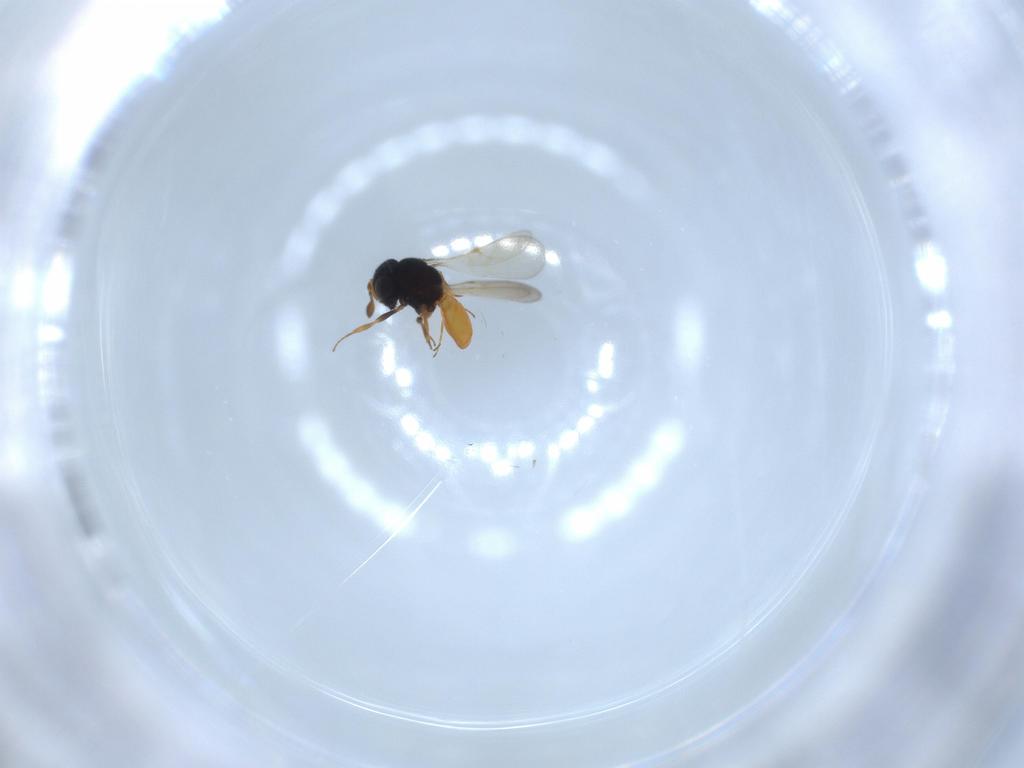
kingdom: Animalia
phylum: Arthropoda
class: Insecta
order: Hymenoptera
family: Scelionidae
